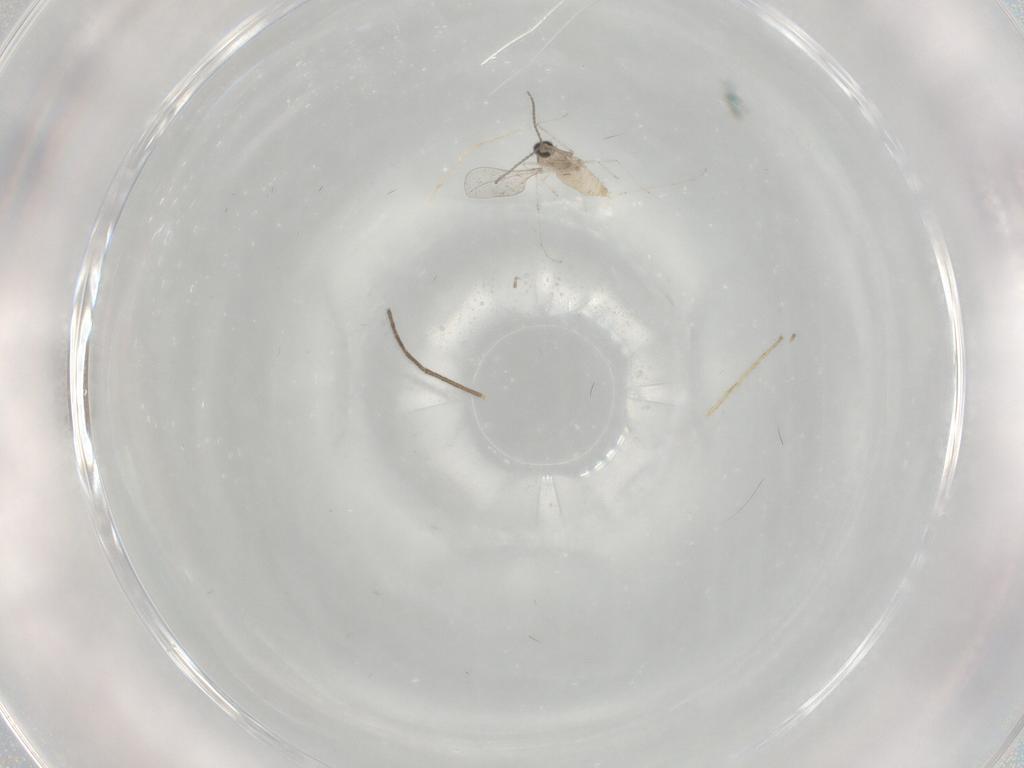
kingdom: Animalia
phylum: Arthropoda
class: Insecta
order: Diptera
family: Cecidomyiidae
